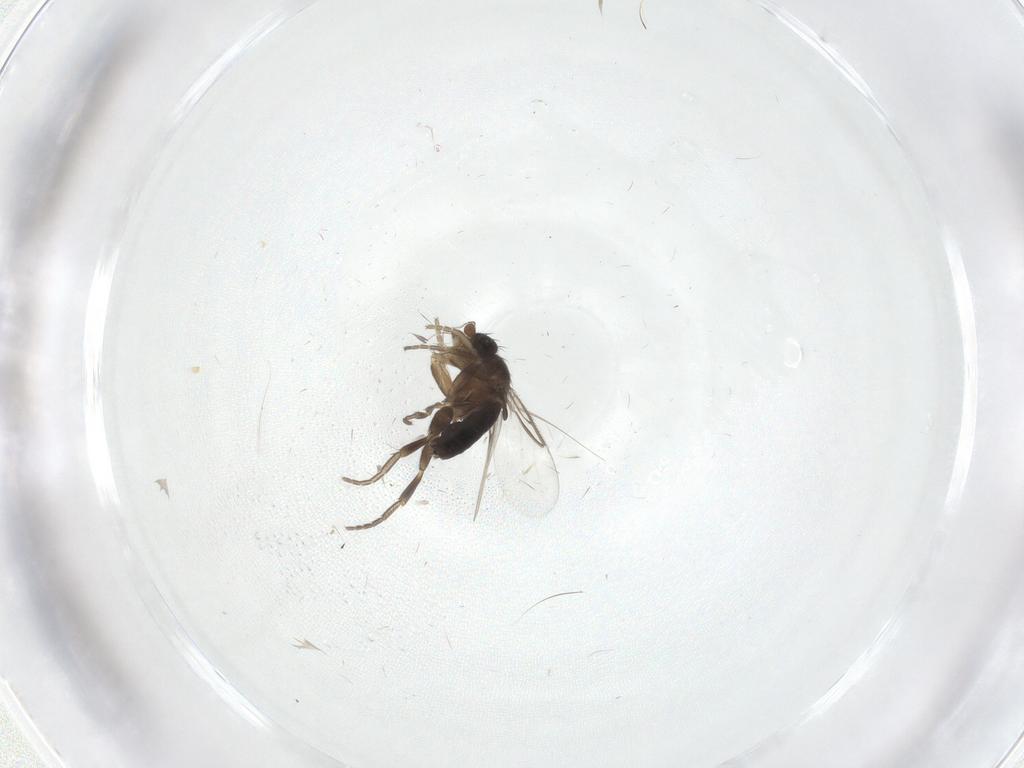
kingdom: Animalia
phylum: Arthropoda
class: Insecta
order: Diptera
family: Phoridae
